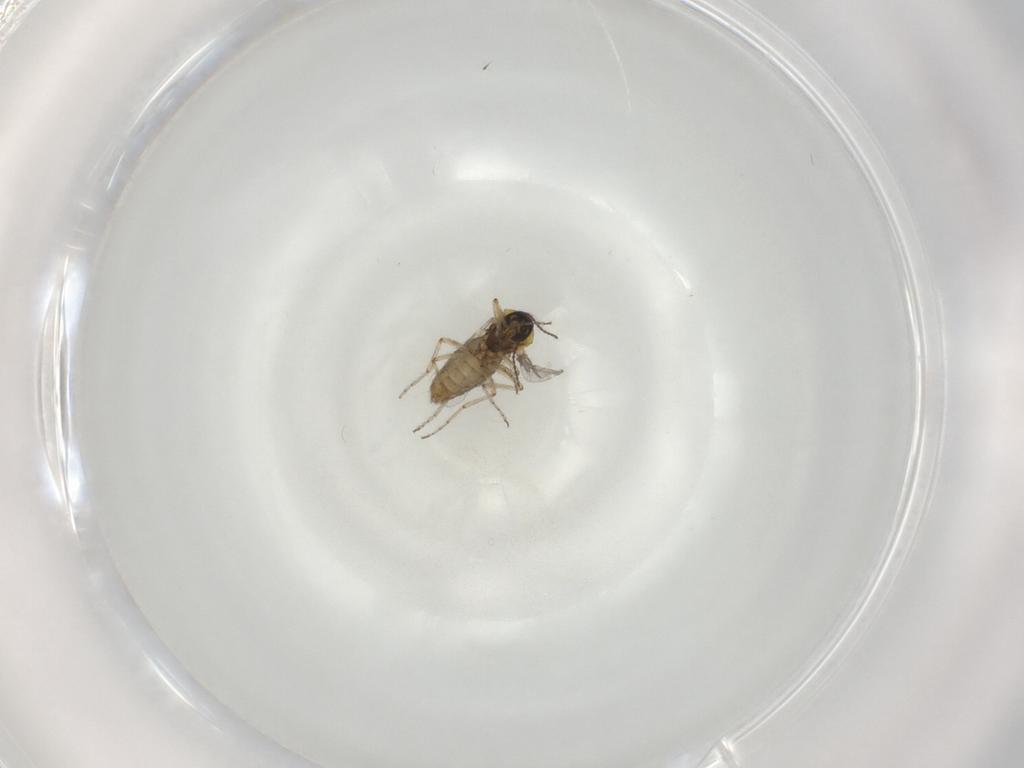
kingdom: Animalia
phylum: Arthropoda
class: Insecta
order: Diptera
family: Ceratopogonidae
